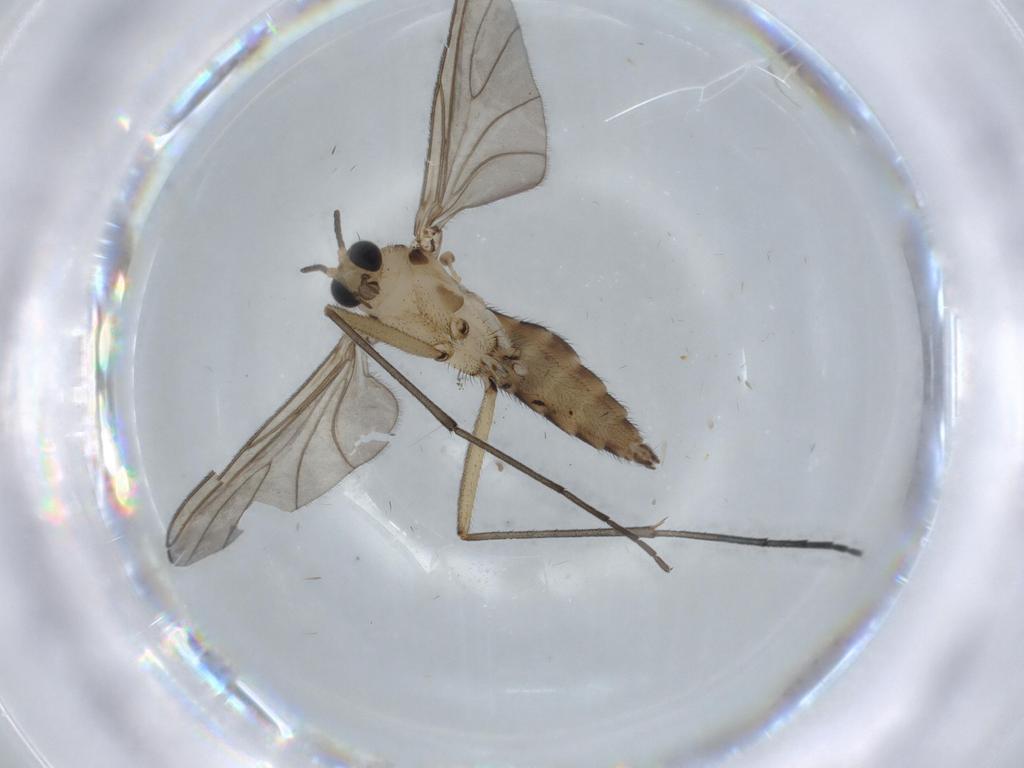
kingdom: Animalia
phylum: Arthropoda
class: Insecta
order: Diptera
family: Sciaridae
